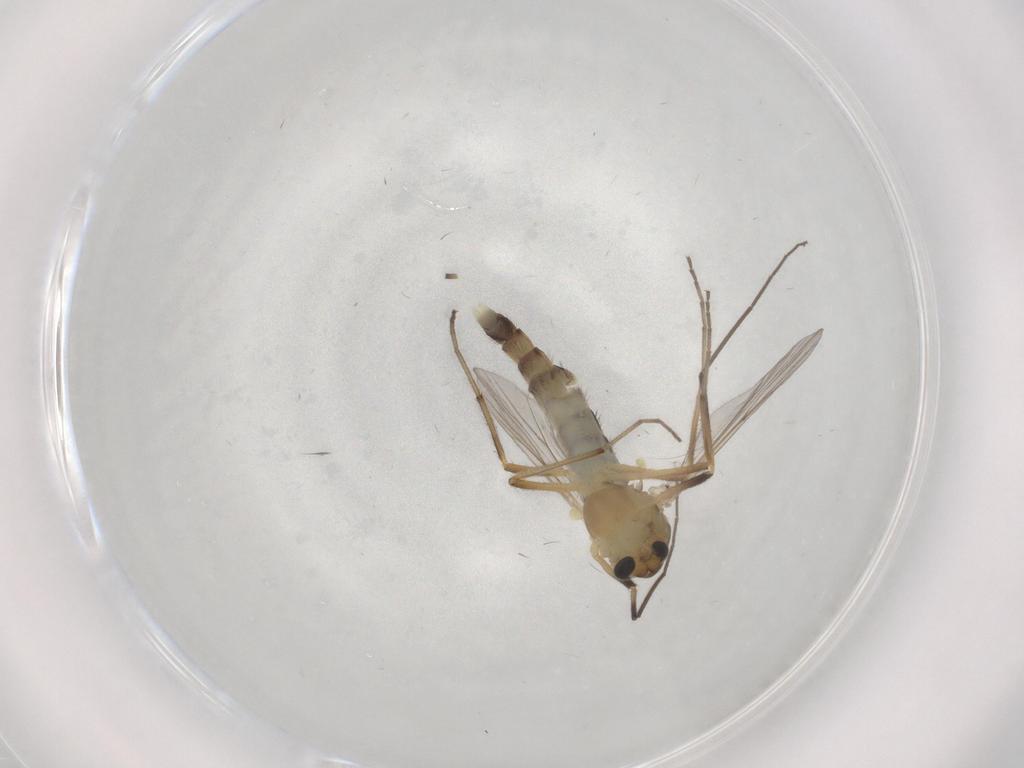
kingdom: Animalia
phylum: Arthropoda
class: Insecta
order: Diptera
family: Chironomidae
